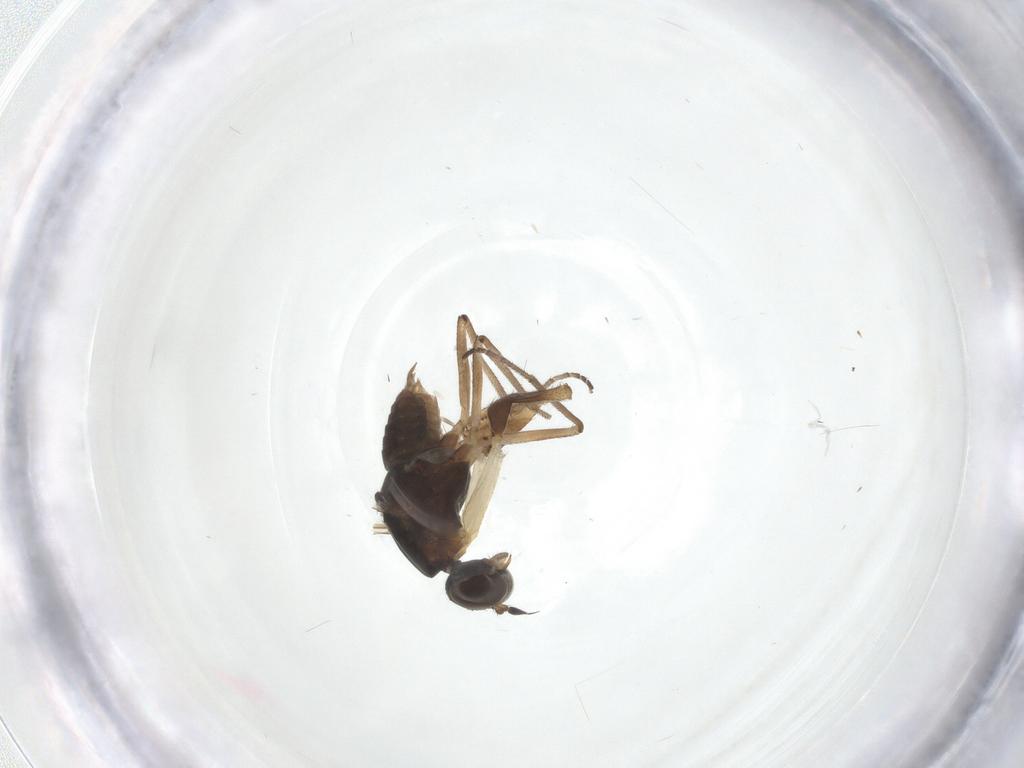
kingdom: Animalia
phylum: Arthropoda
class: Insecta
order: Diptera
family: Empididae
